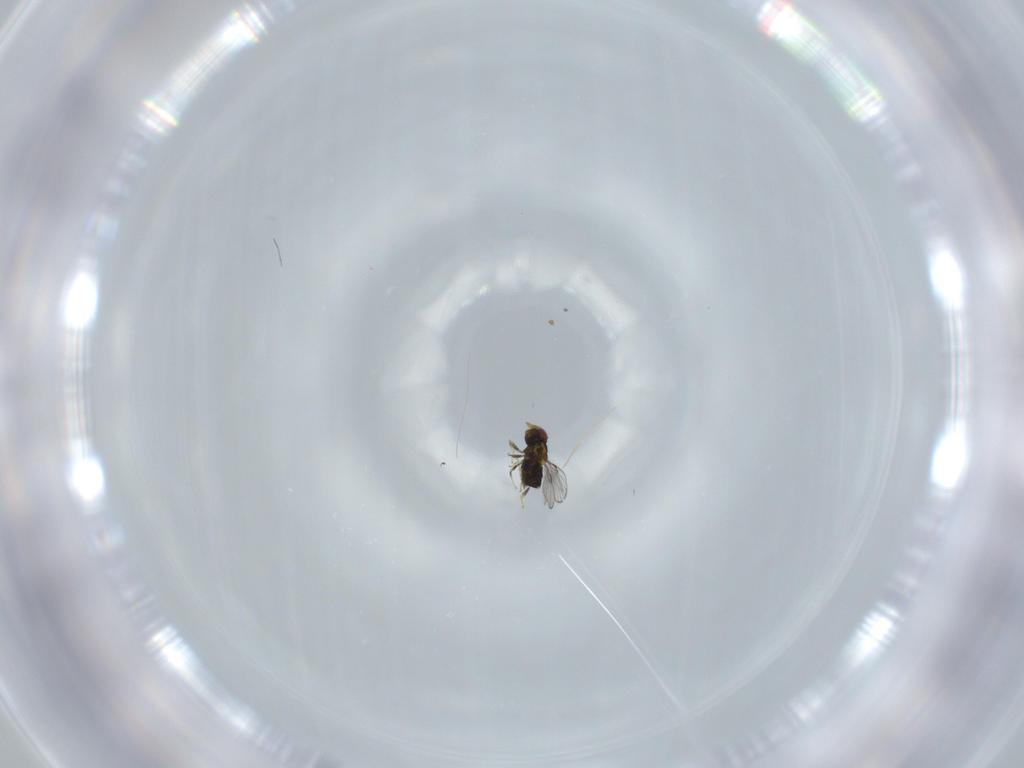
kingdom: Animalia
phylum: Arthropoda
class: Insecta
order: Hymenoptera
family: Trichogrammatidae
